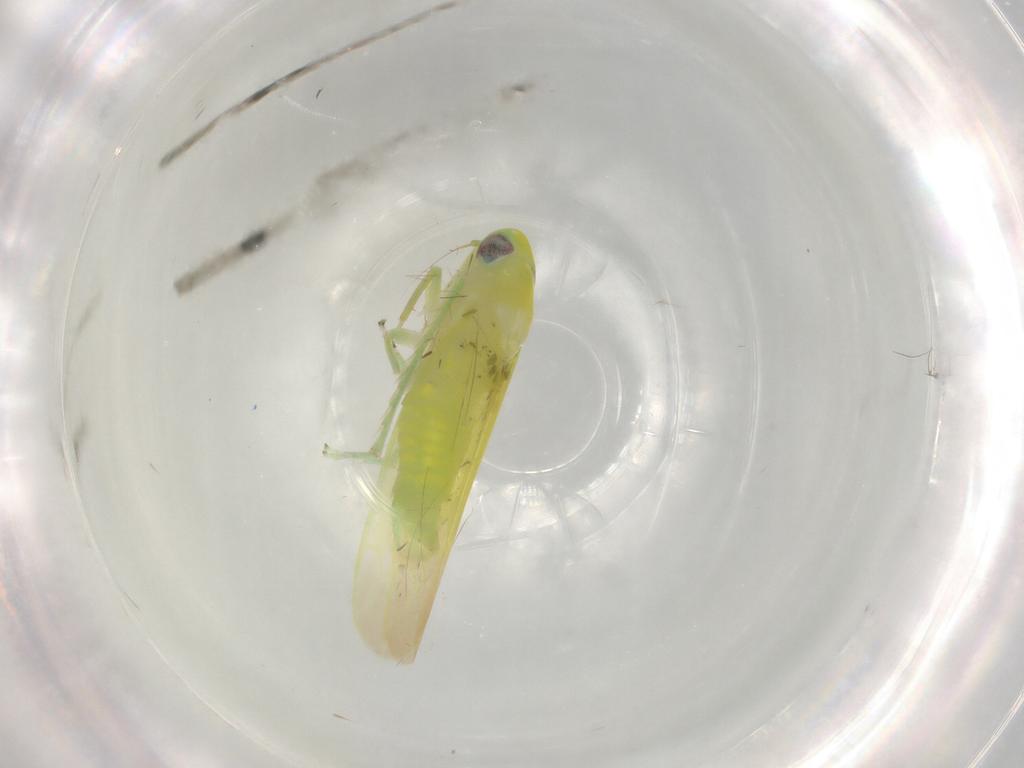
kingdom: Animalia
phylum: Arthropoda
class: Insecta
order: Hemiptera
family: Cicadellidae
